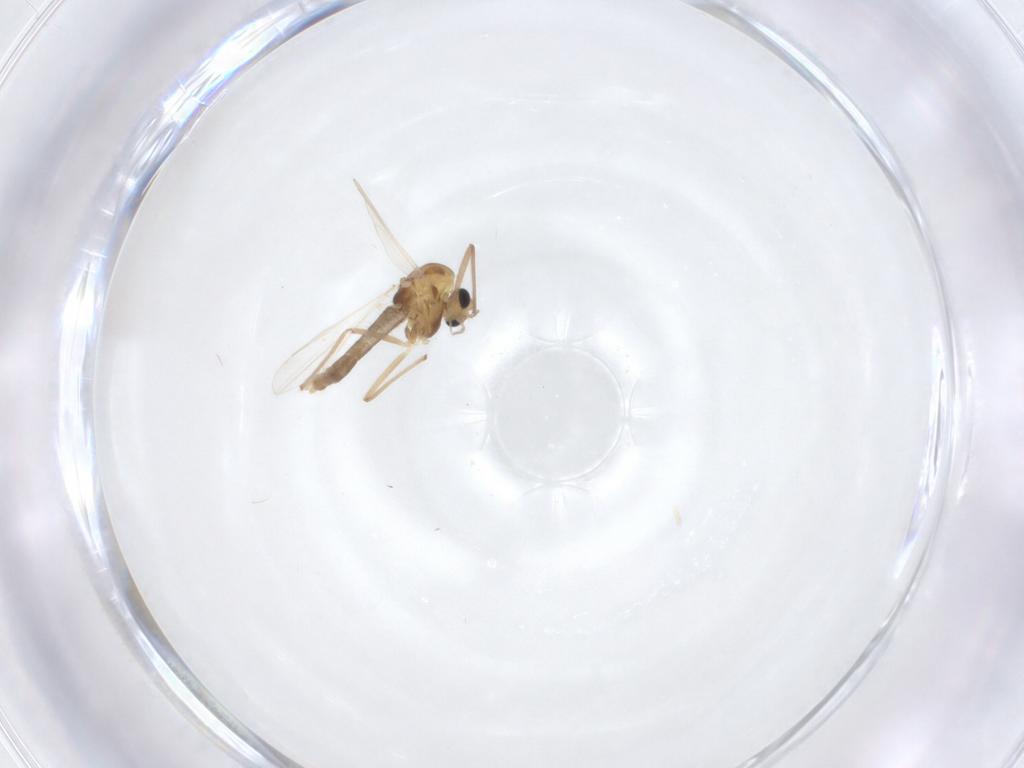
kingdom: Animalia
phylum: Arthropoda
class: Insecta
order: Diptera
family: Chironomidae
